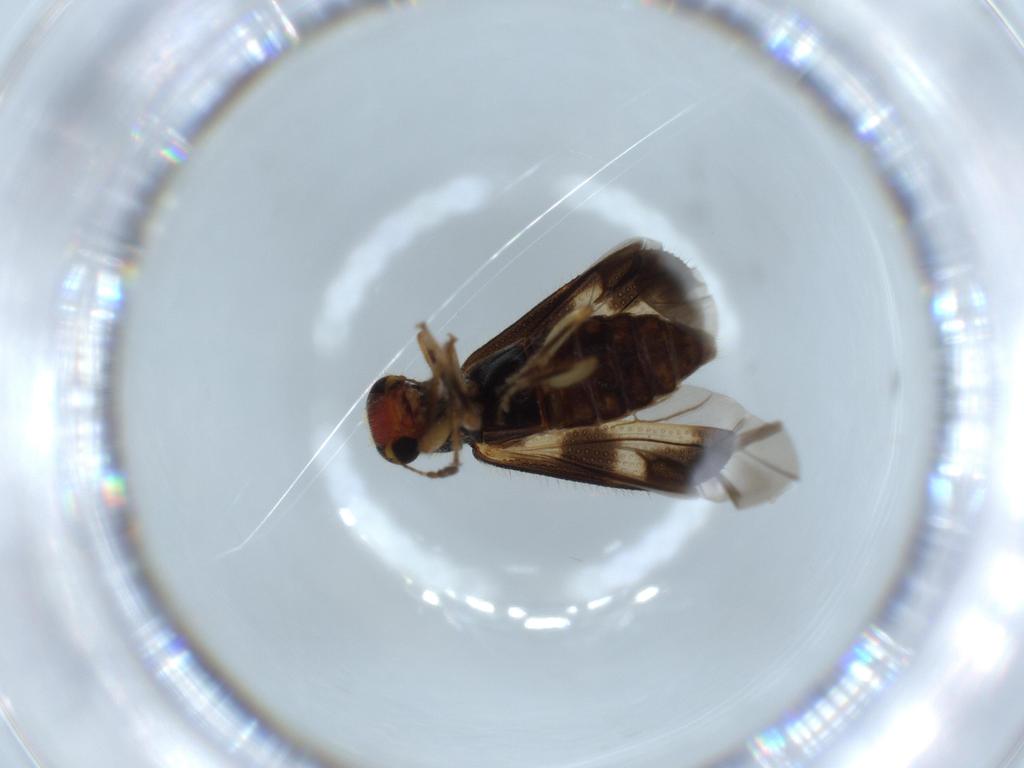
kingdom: Animalia
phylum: Arthropoda
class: Insecta
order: Coleoptera
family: Cleridae
